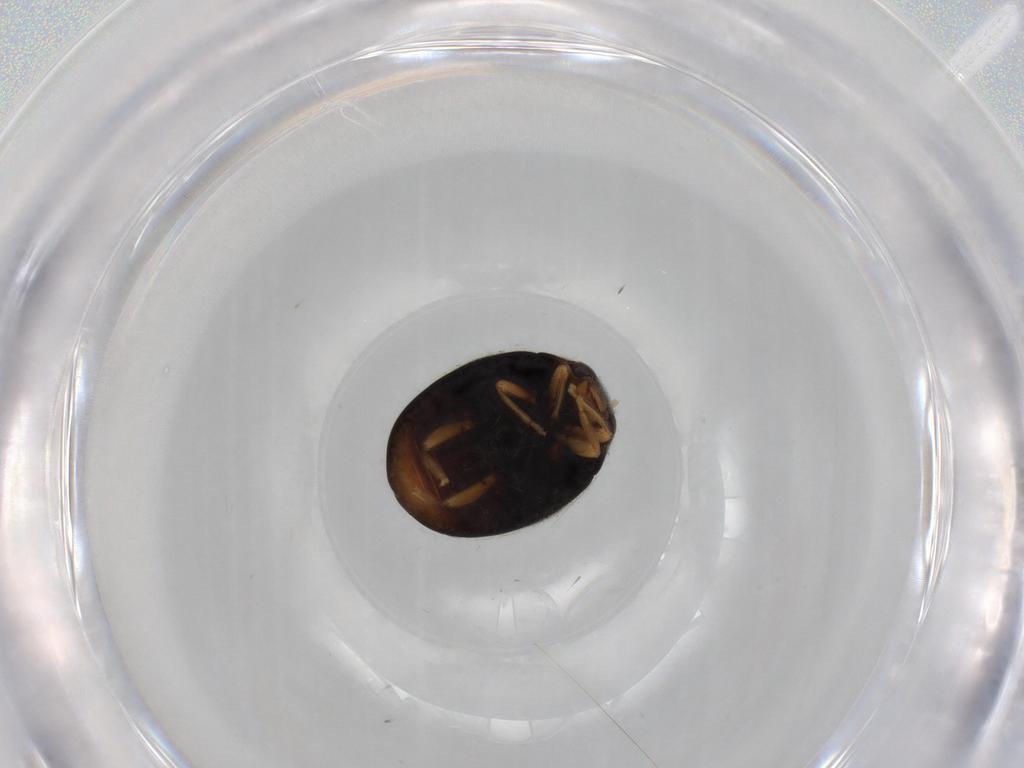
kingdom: Animalia
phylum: Arthropoda
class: Insecta
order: Coleoptera
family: Coccinellidae
